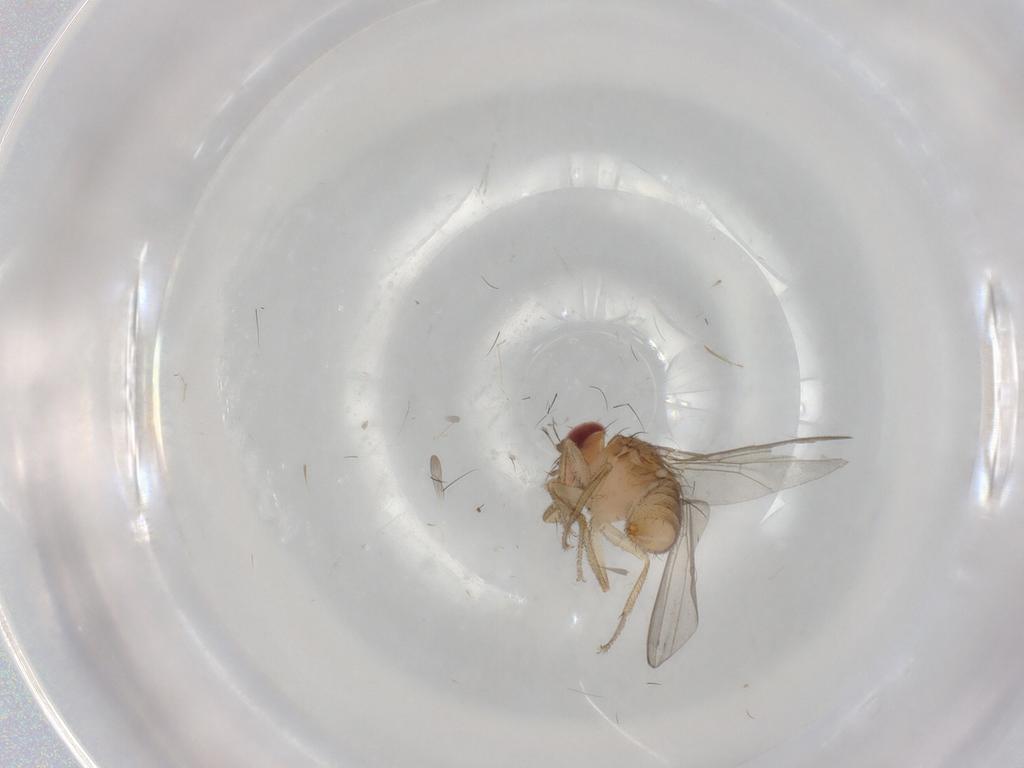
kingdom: Animalia
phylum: Arthropoda
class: Insecta
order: Diptera
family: Drosophilidae
